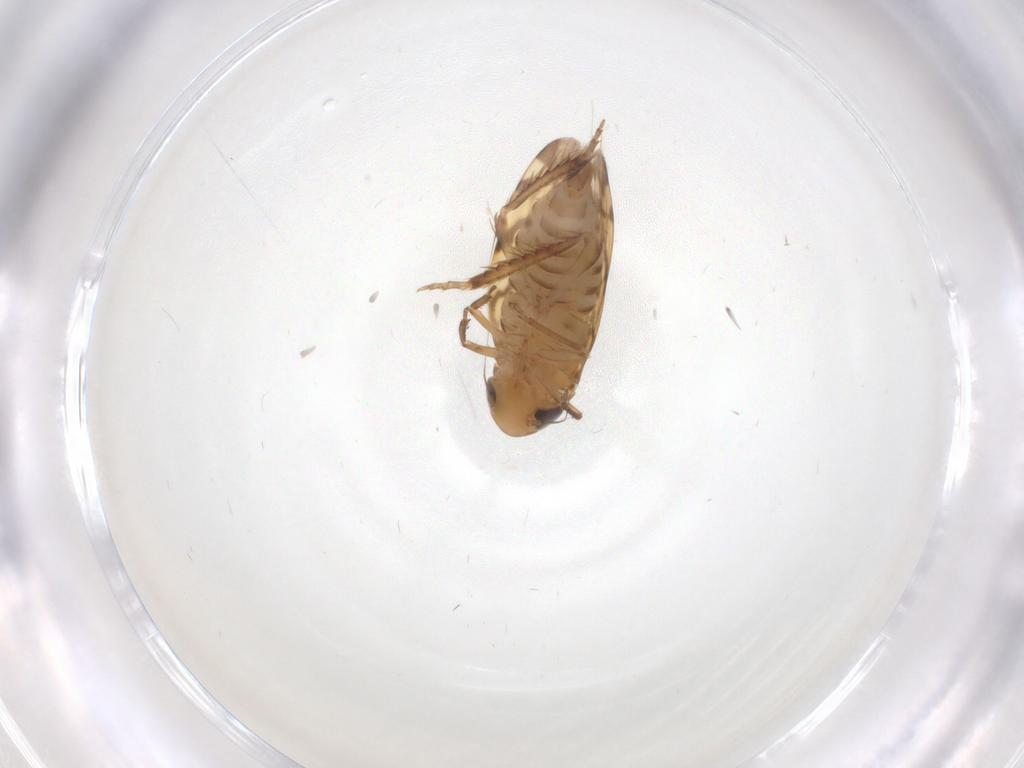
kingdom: Animalia
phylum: Arthropoda
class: Insecta
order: Hemiptera
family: Cicadellidae
